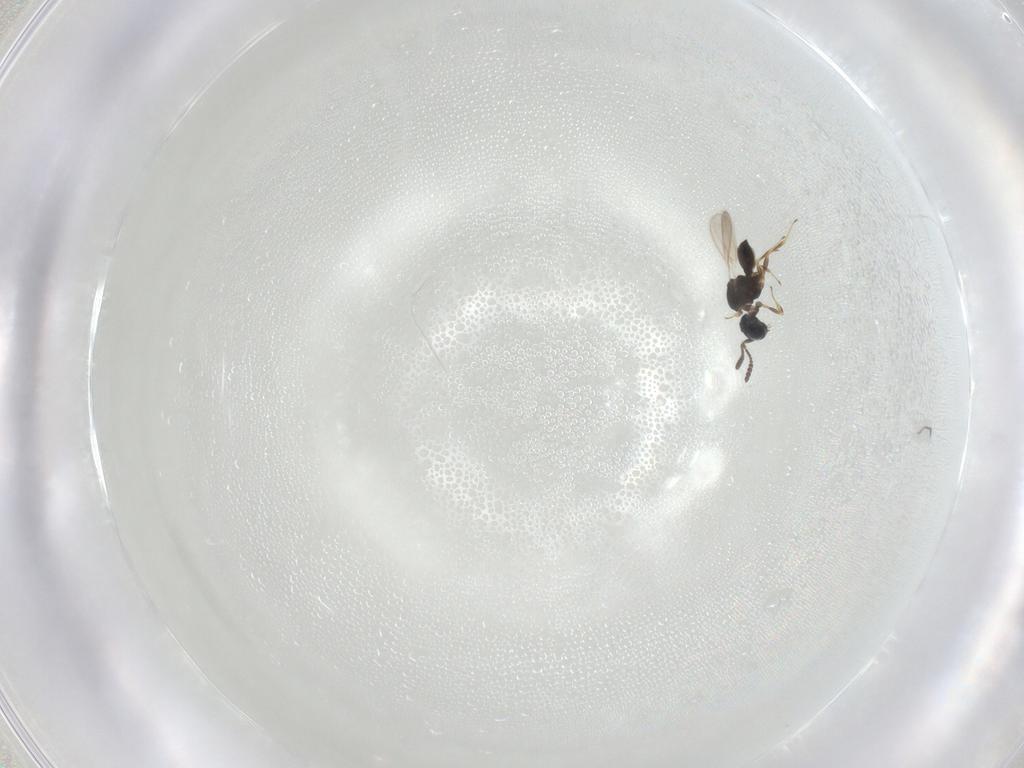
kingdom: Animalia
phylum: Arthropoda
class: Insecta
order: Hymenoptera
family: Scelionidae
